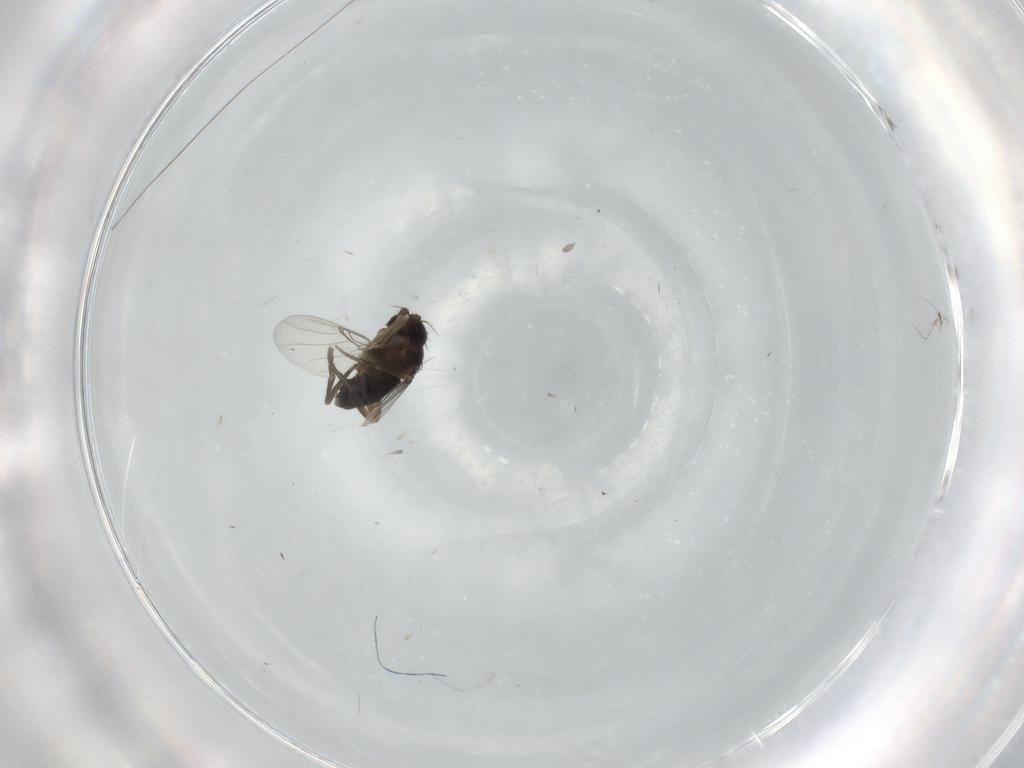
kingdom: Animalia
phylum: Arthropoda
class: Insecta
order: Diptera
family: Phoridae
